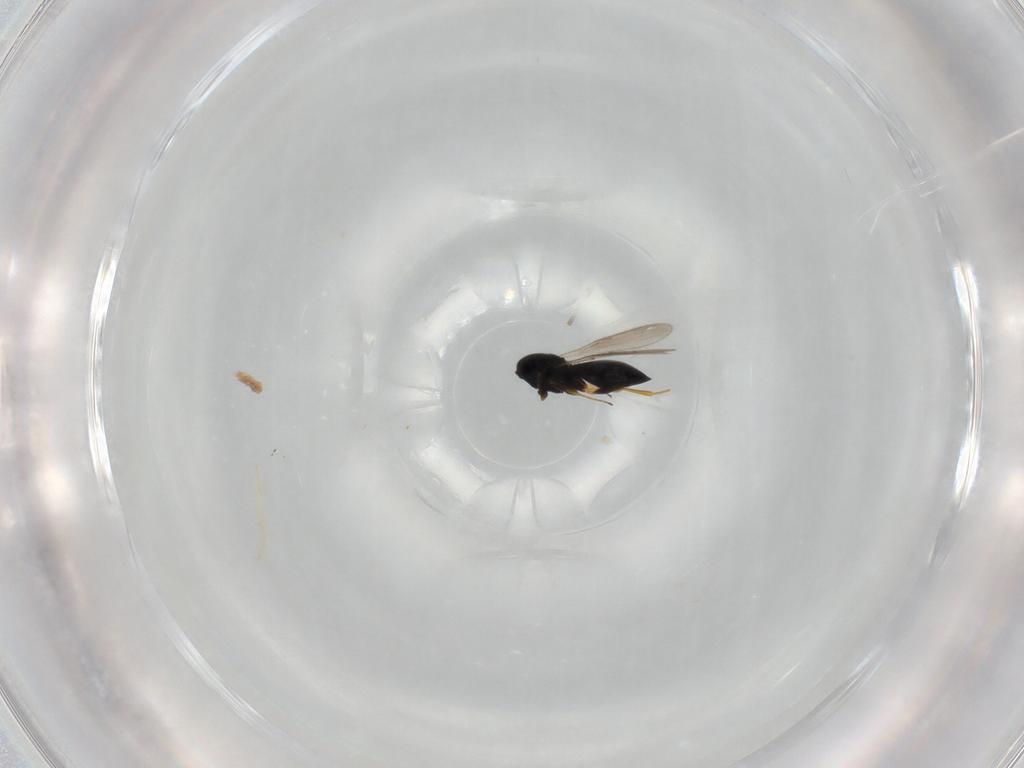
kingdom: Animalia
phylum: Arthropoda
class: Insecta
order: Hymenoptera
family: Scelionidae
